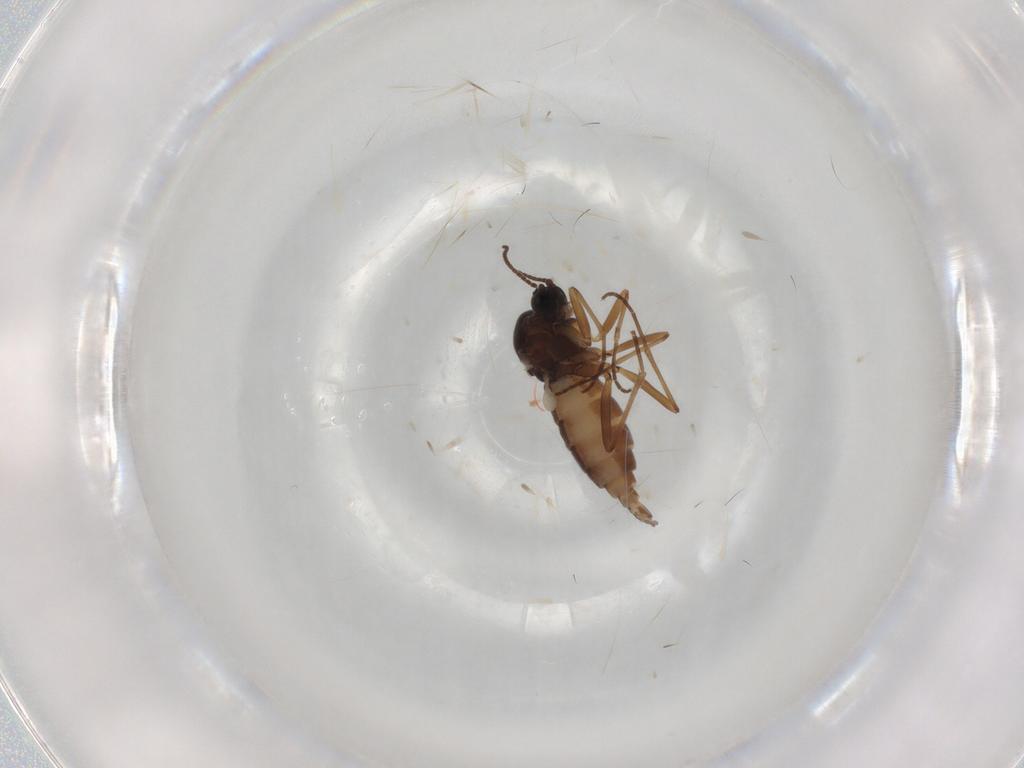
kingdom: Animalia
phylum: Arthropoda
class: Insecta
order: Diptera
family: Sciaridae
